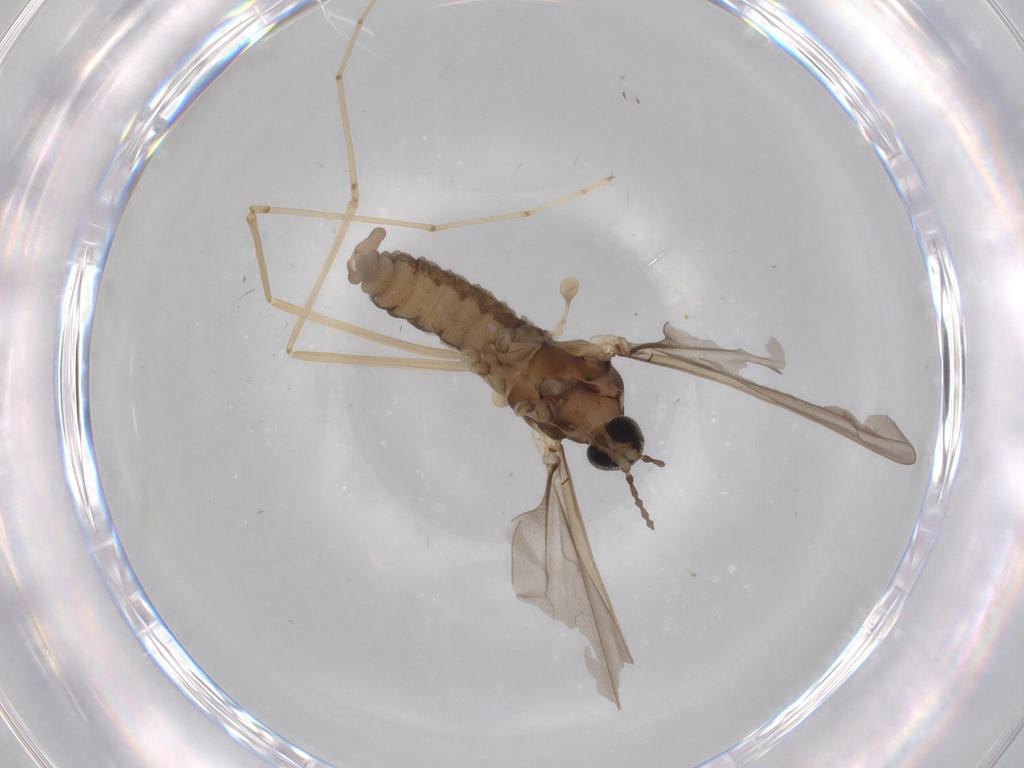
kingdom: Animalia
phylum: Arthropoda
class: Insecta
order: Diptera
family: Cecidomyiidae
